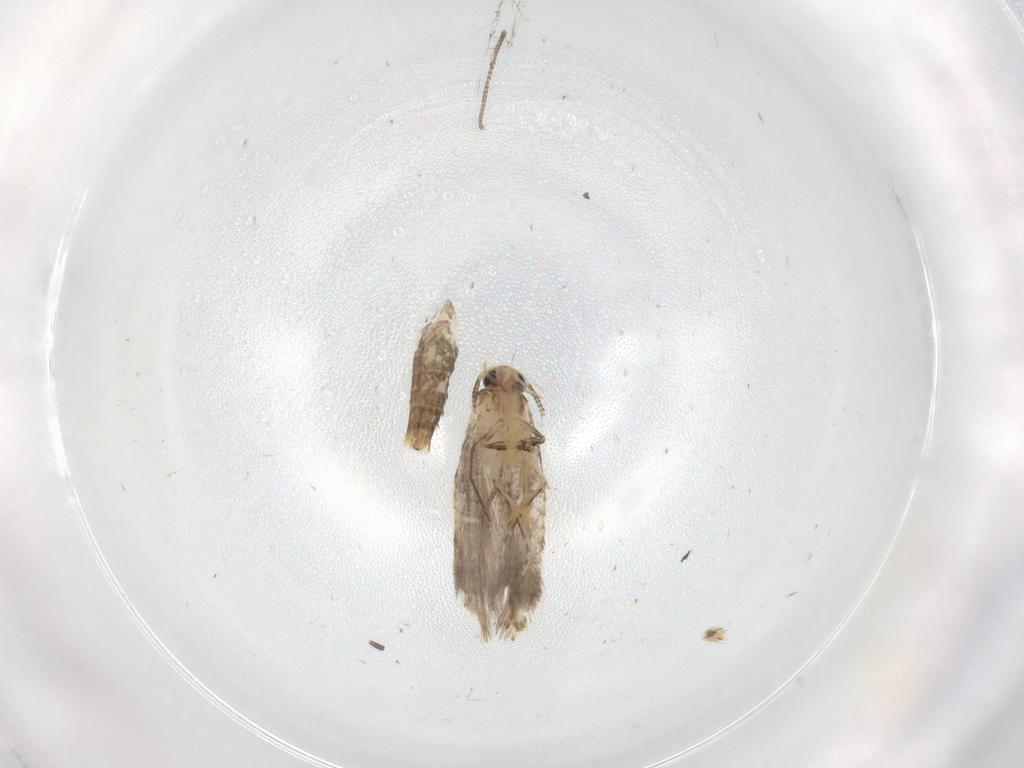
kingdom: Animalia
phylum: Arthropoda
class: Insecta
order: Lepidoptera
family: Tineidae
